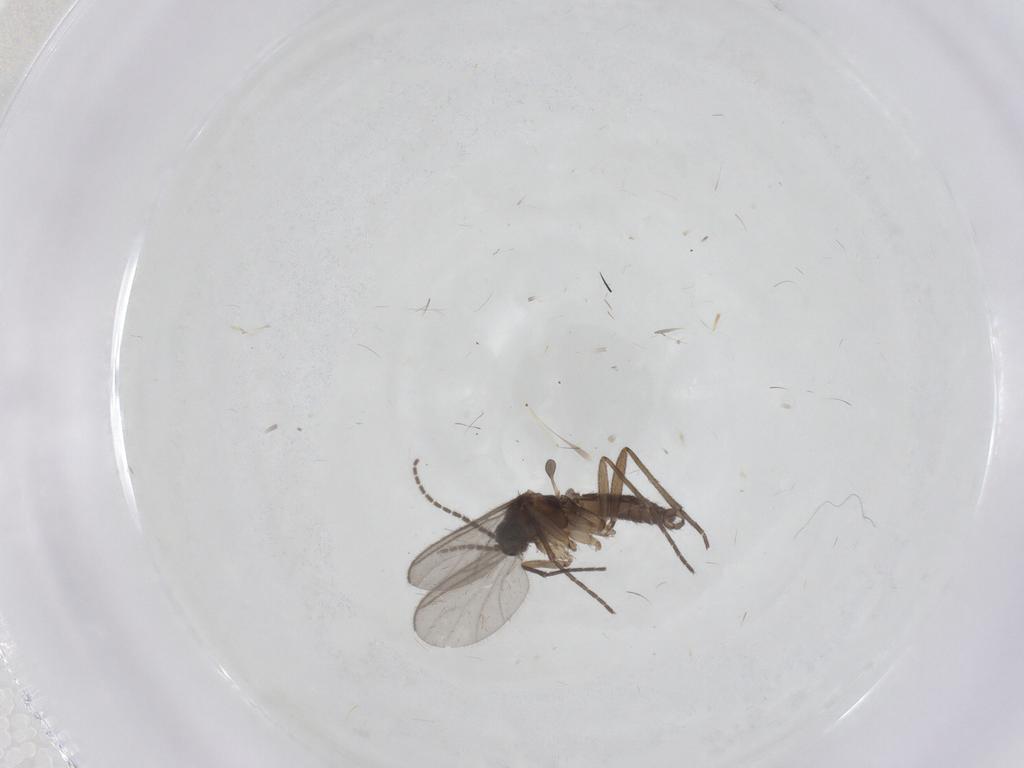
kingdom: Animalia
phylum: Arthropoda
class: Insecta
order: Diptera
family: Sciaridae
